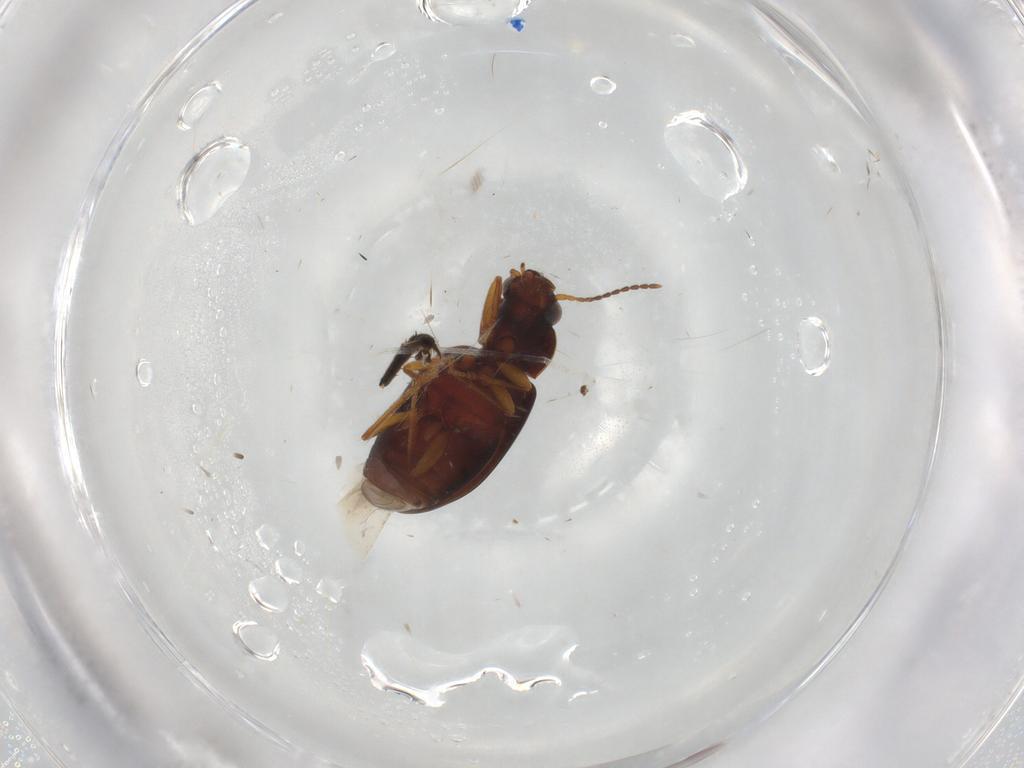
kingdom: Animalia
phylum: Arthropoda
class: Insecta
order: Coleoptera
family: Carabidae
